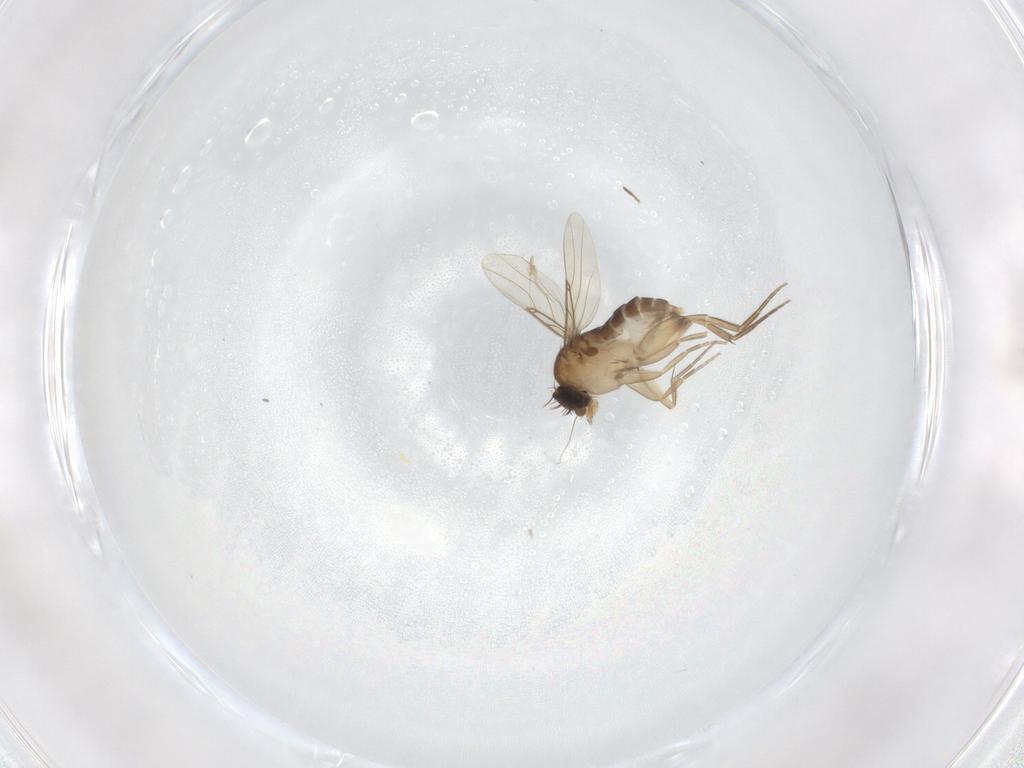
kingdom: Animalia
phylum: Arthropoda
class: Insecta
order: Diptera
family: Phoridae
